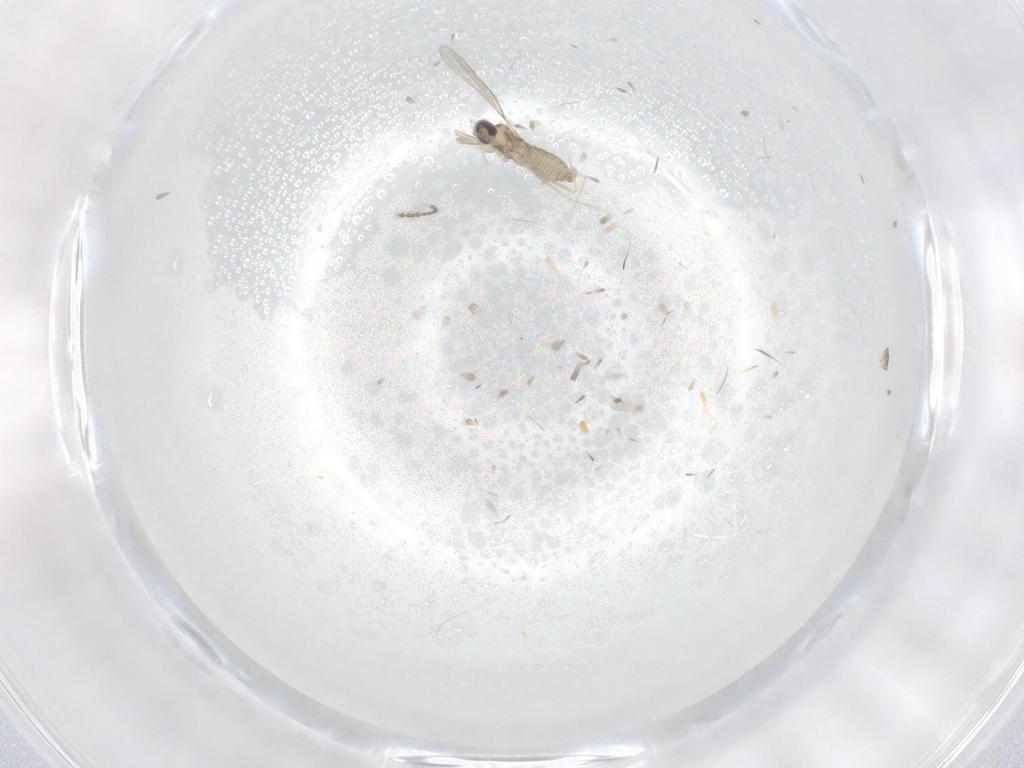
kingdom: Animalia
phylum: Arthropoda
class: Insecta
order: Diptera
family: Cecidomyiidae
